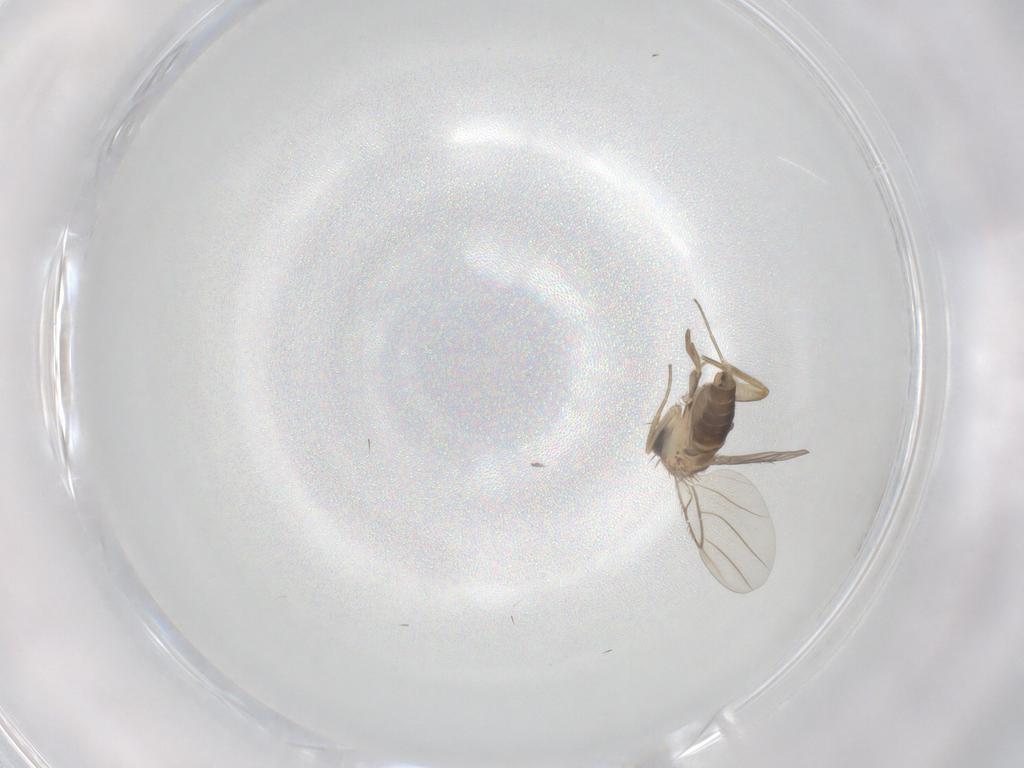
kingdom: Animalia
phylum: Arthropoda
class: Insecta
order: Diptera
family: Phoridae
